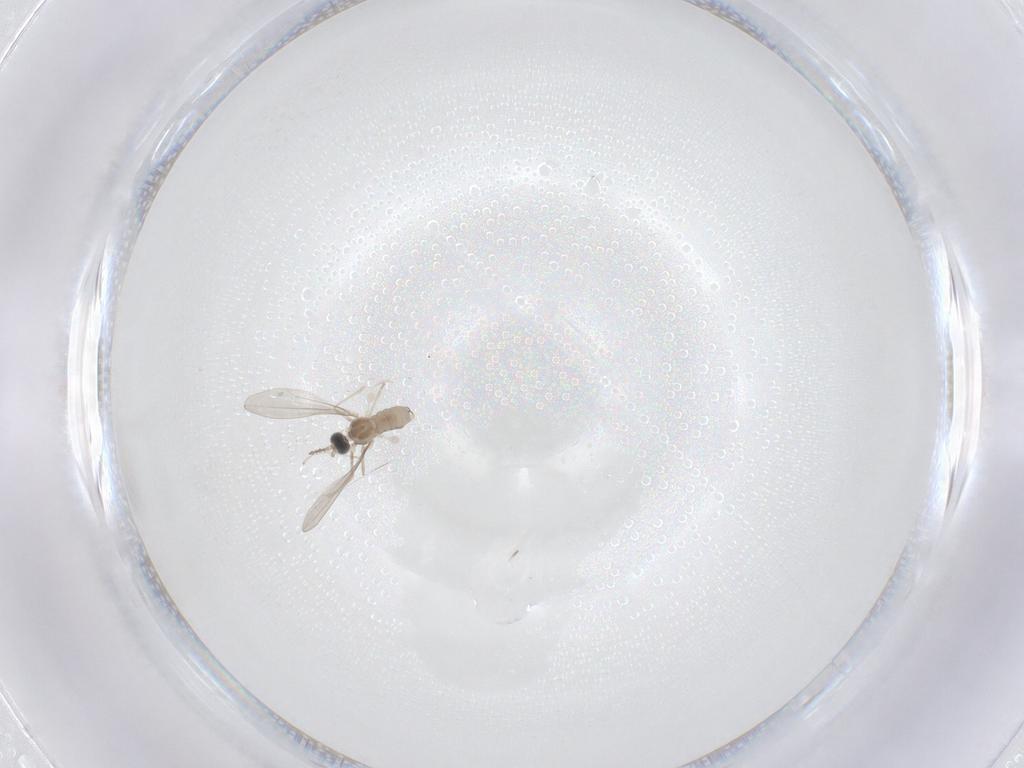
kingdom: Animalia
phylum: Arthropoda
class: Insecta
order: Diptera
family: Cecidomyiidae
